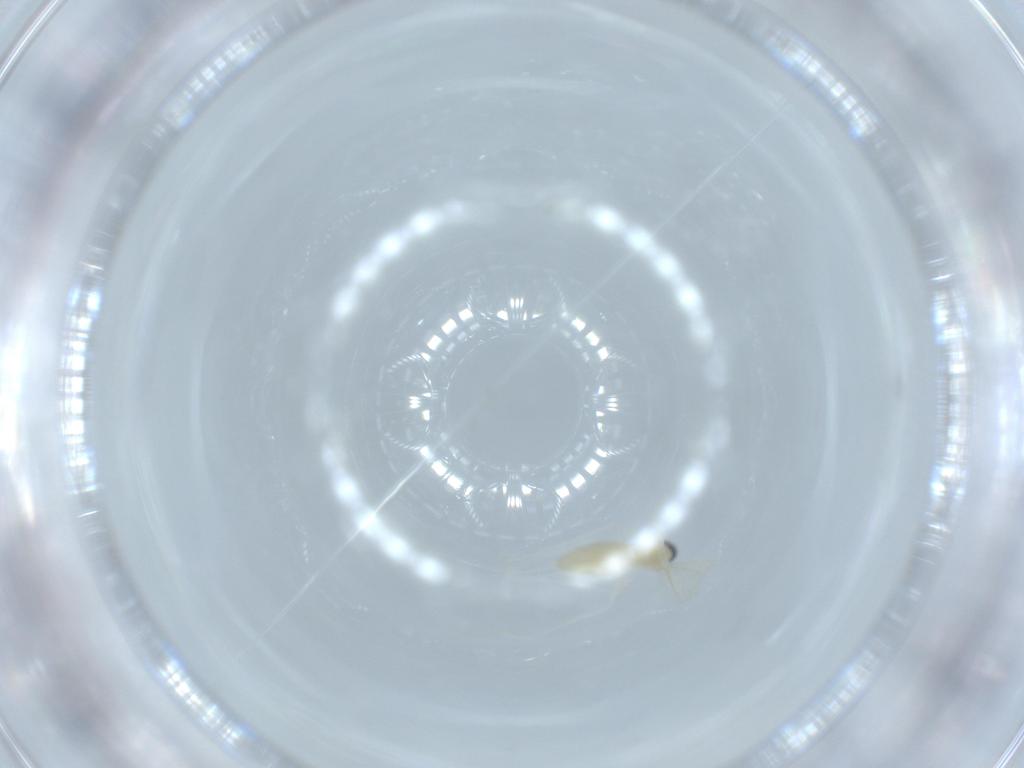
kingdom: Animalia
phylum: Arthropoda
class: Insecta
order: Diptera
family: Cecidomyiidae
